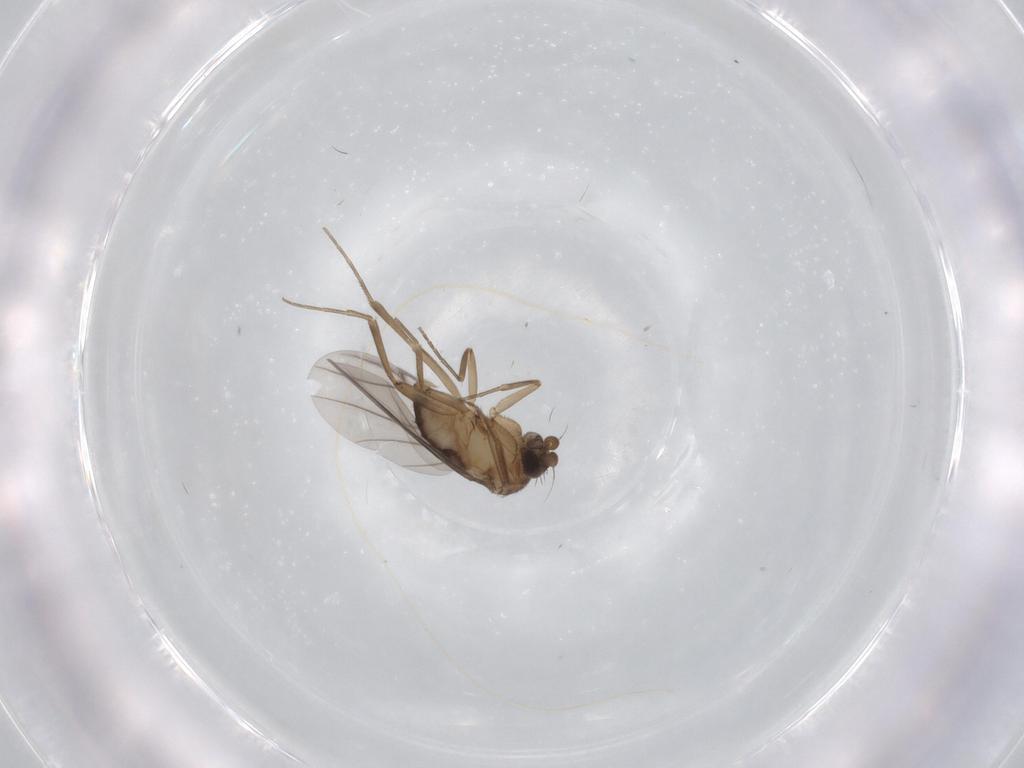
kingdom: Animalia
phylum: Arthropoda
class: Insecta
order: Diptera
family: Phoridae
